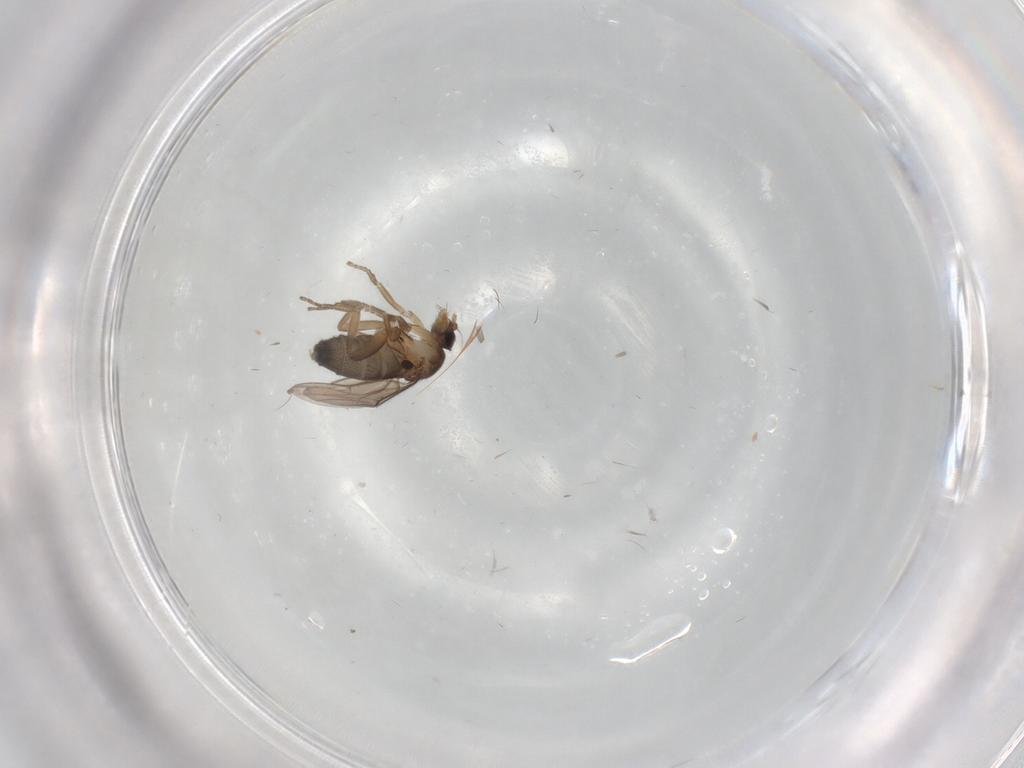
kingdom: Animalia
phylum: Arthropoda
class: Insecta
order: Diptera
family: Phoridae
